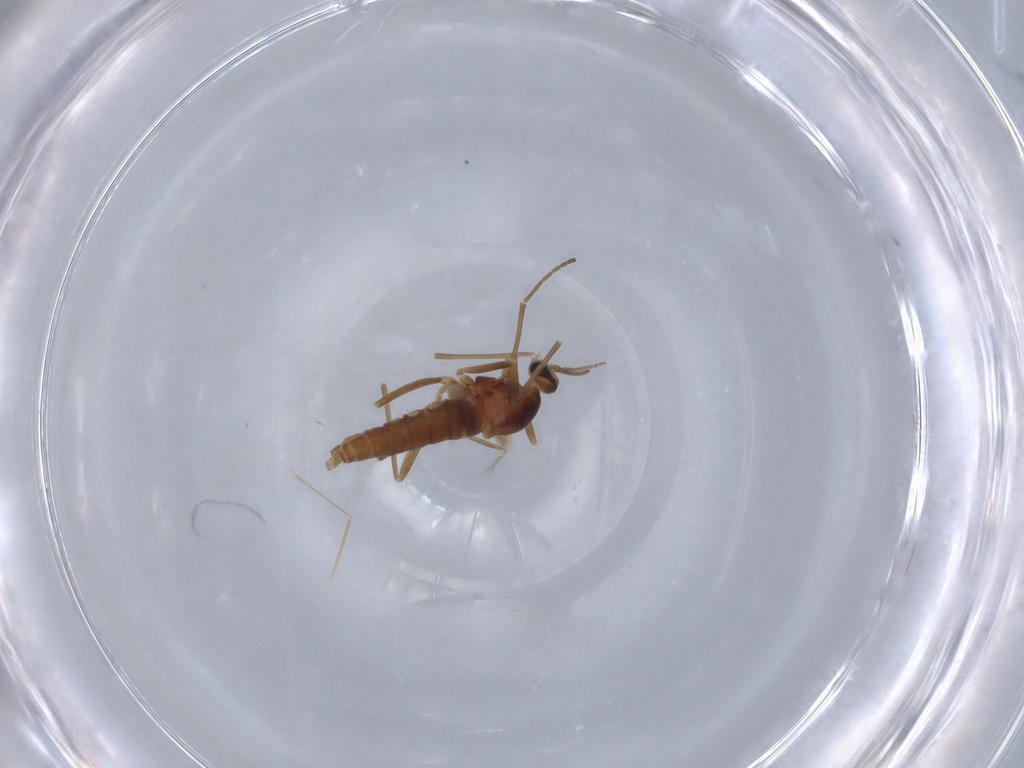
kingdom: Animalia
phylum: Arthropoda
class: Insecta
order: Diptera
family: Cecidomyiidae
